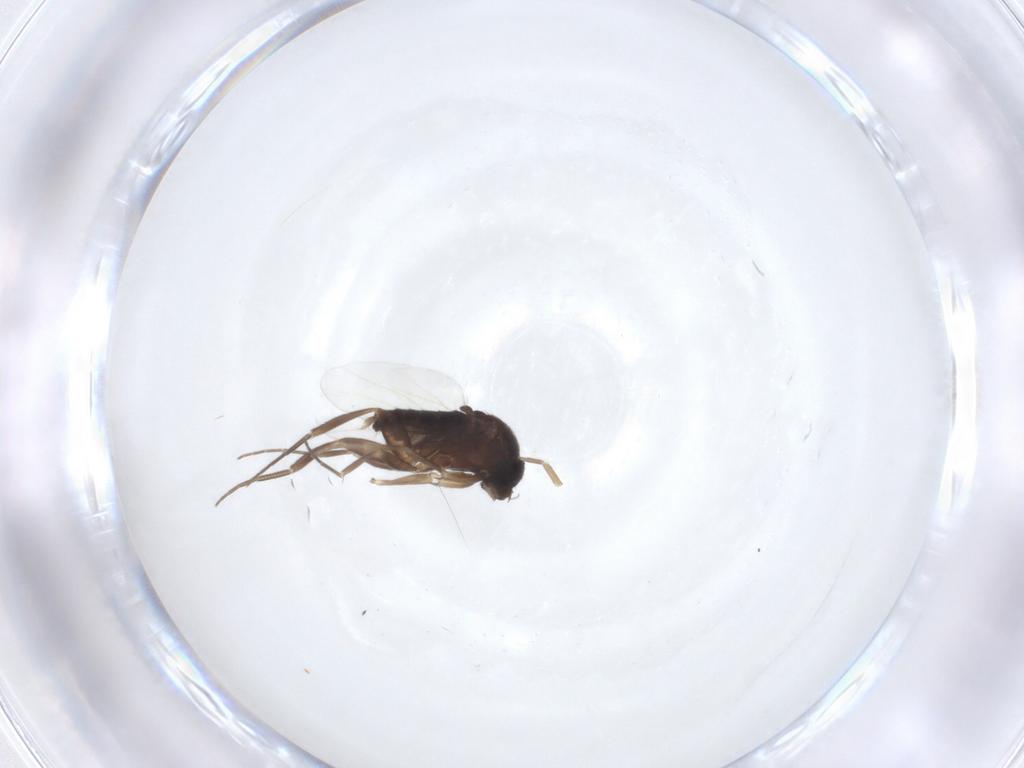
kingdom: Animalia
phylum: Arthropoda
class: Insecta
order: Diptera
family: Phoridae
